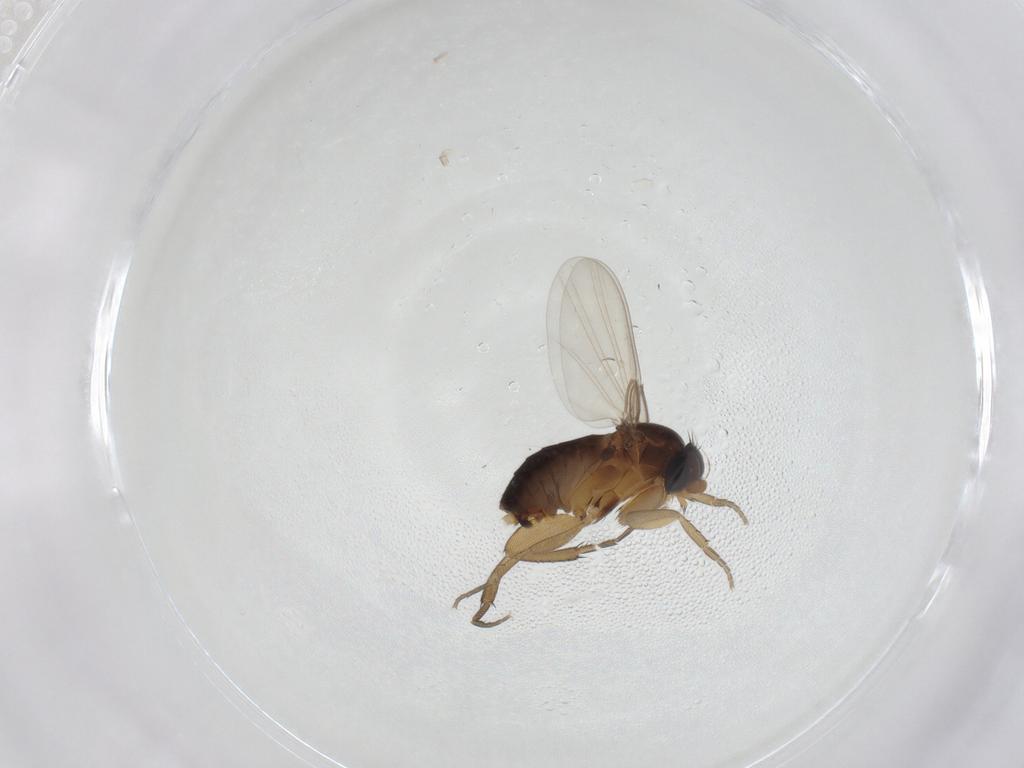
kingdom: Animalia
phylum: Arthropoda
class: Insecta
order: Diptera
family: Phoridae
